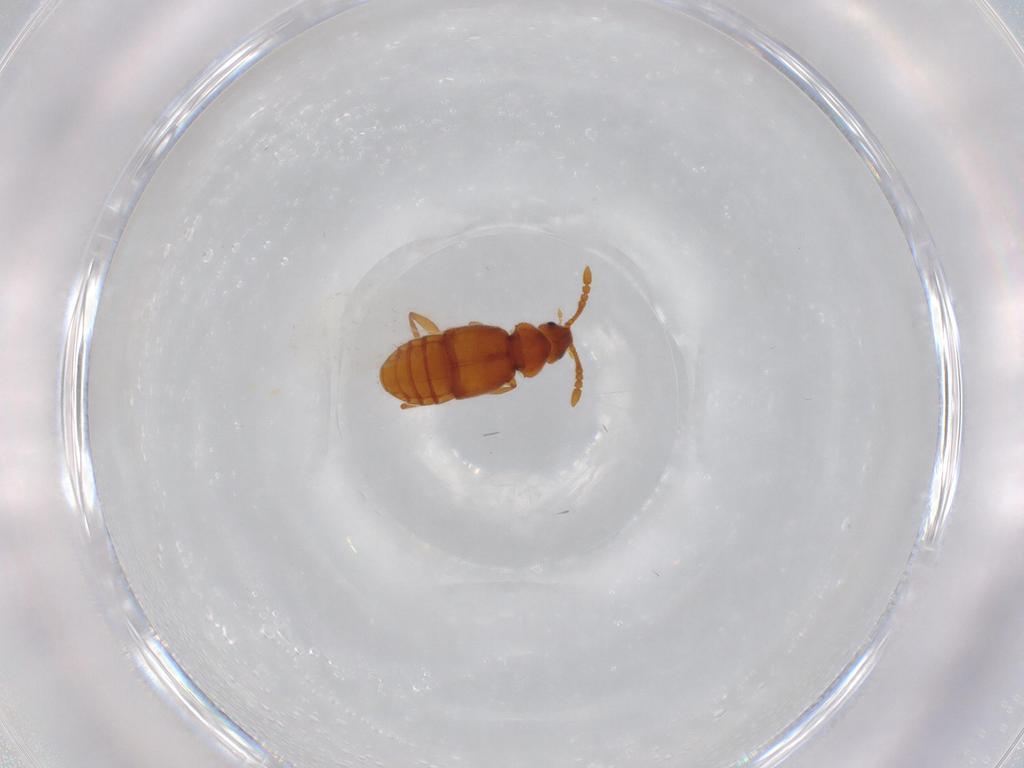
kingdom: Animalia
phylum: Arthropoda
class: Insecta
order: Coleoptera
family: Staphylinidae
